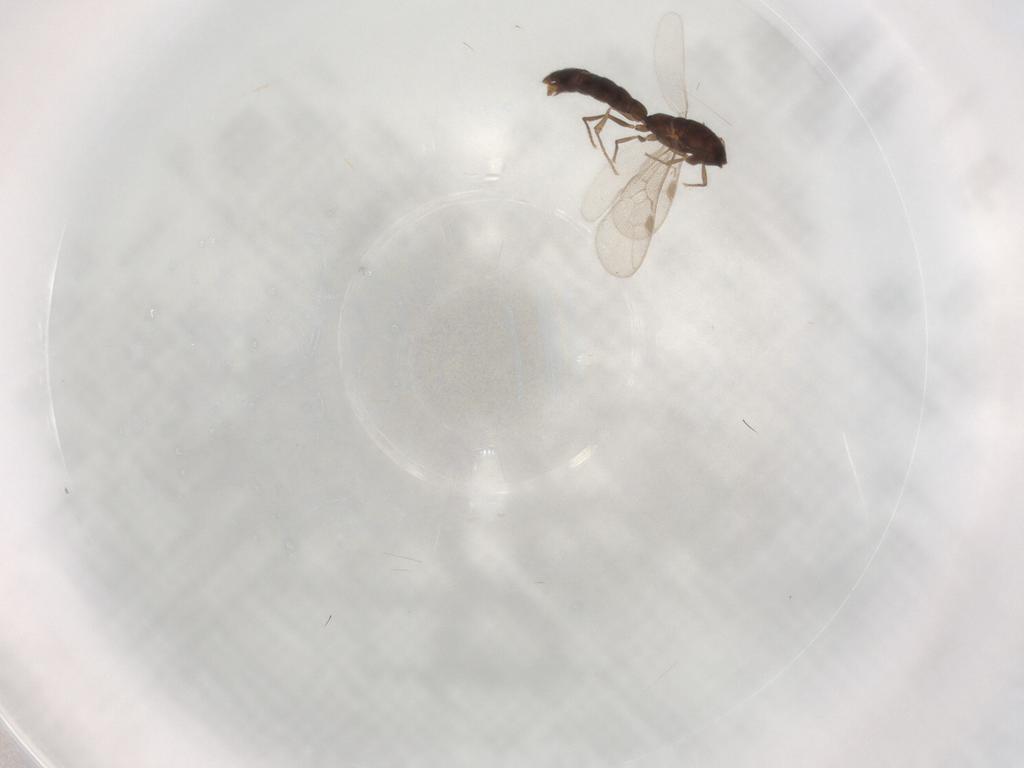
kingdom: Animalia
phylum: Arthropoda
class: Insecta
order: Hymenoptera
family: Formicidae
